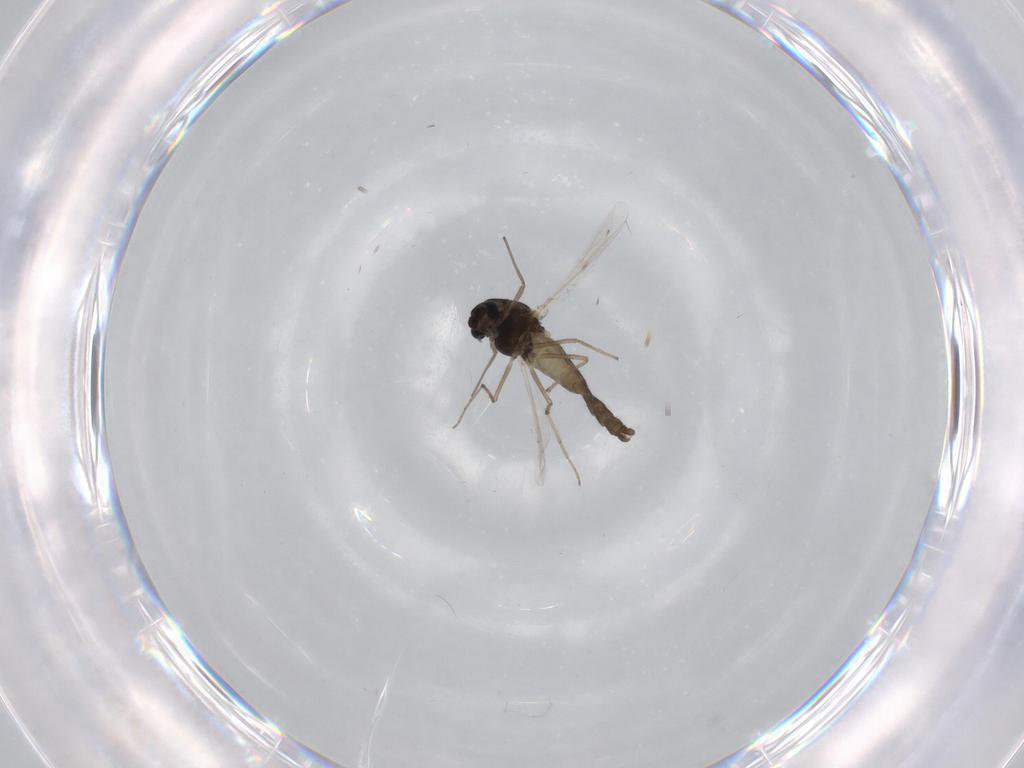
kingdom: Animalia
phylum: Arthropoda
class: Insecta
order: Diptera
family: Chironomidae
